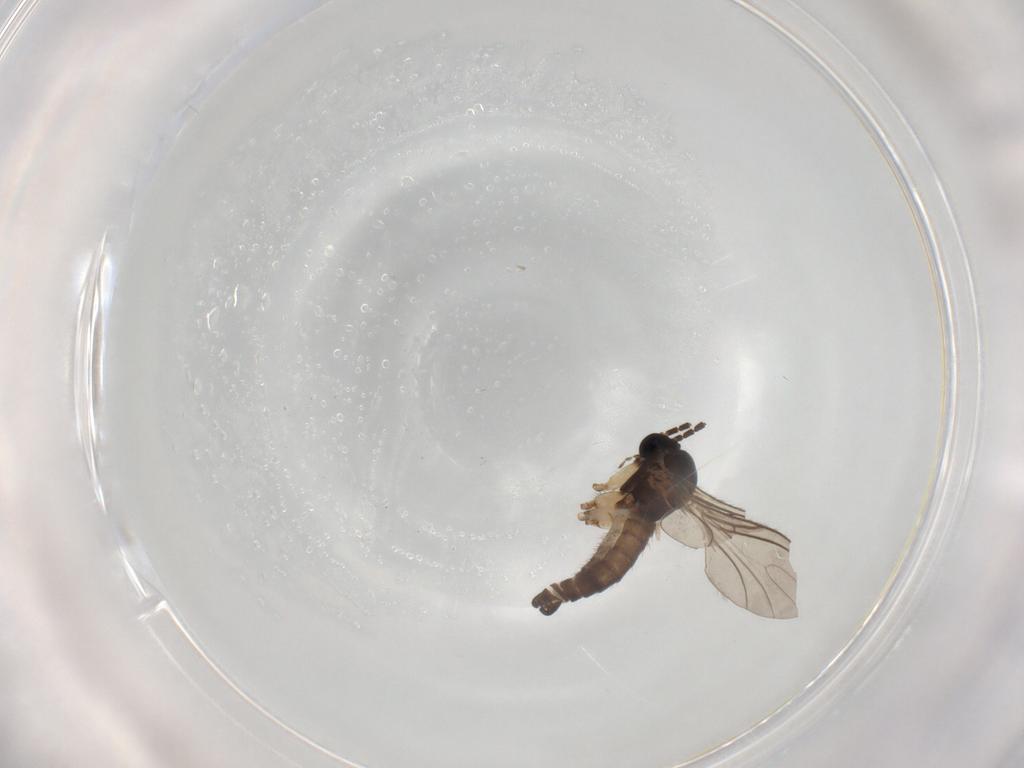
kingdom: Animalia
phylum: Arthropoda
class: Insecta
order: Diptera
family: Sciaridae
